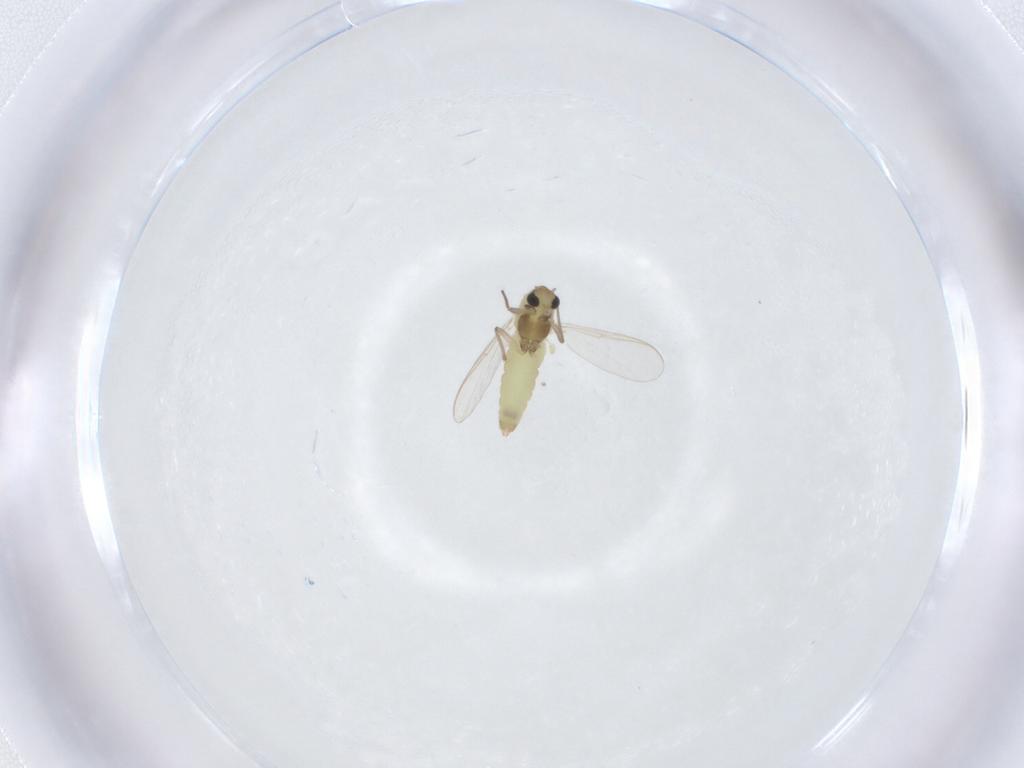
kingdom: Animalia
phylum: Arthropoda
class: Insecta
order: Diptera
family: Chironomidae
